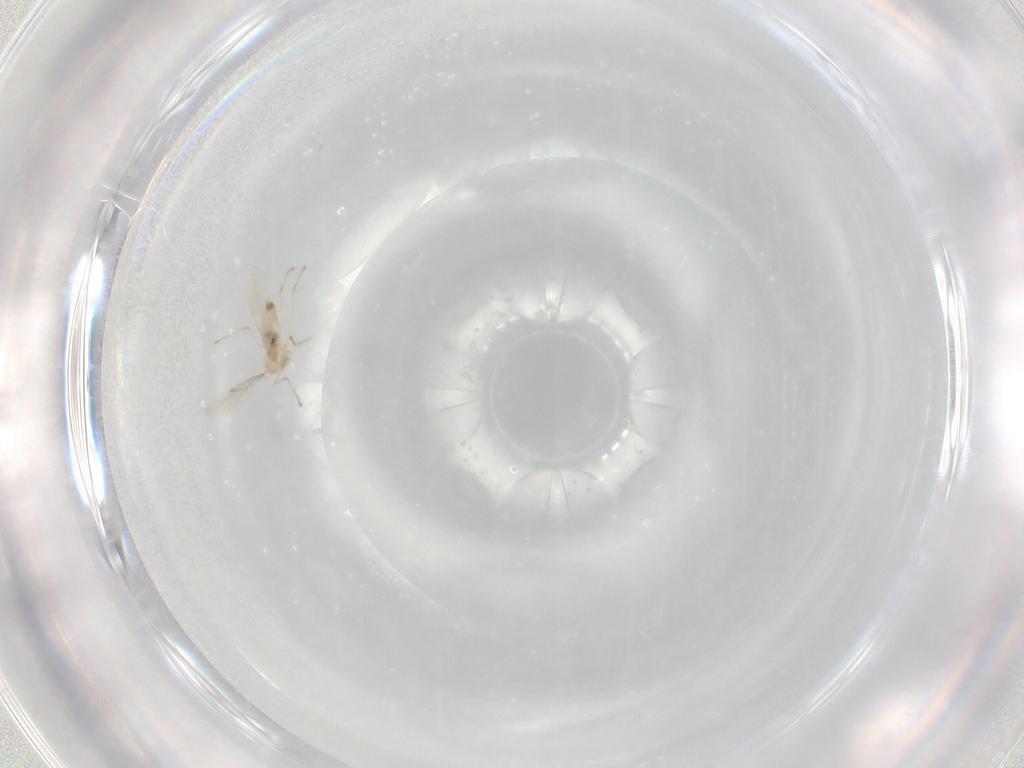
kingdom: Animalia
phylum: Arthropoda
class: Insecta
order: Diptera
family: Cecidomyiidae
